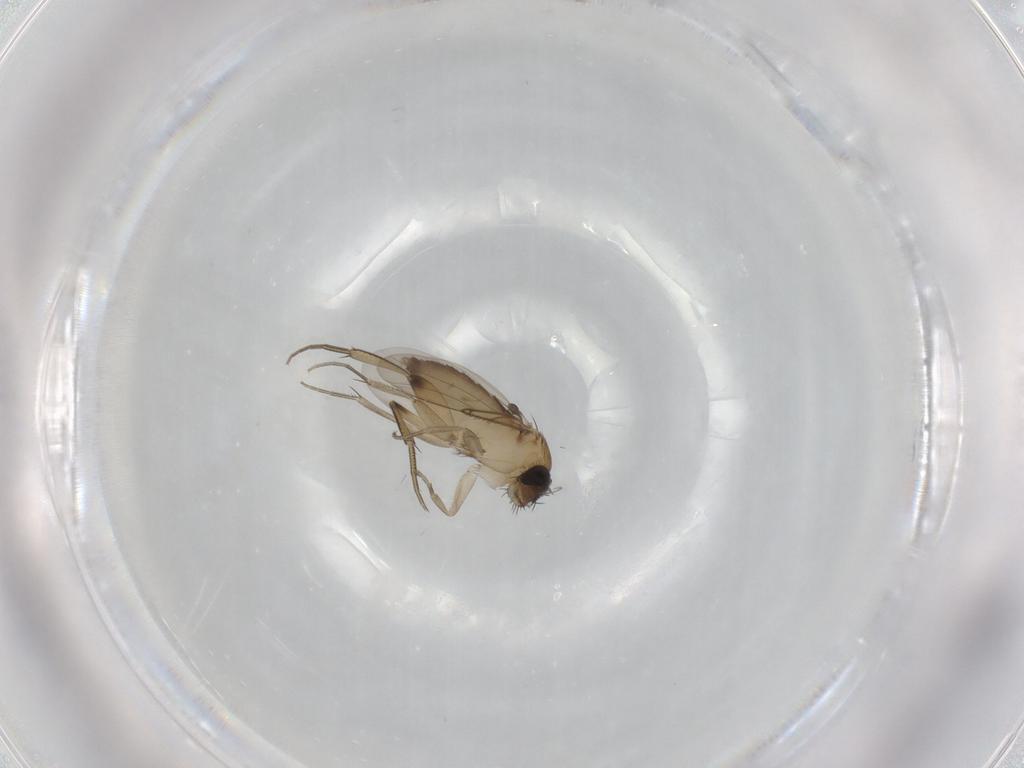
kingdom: Animalia
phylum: Arthropoda
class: Insecta
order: Diptera
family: Phoridae
